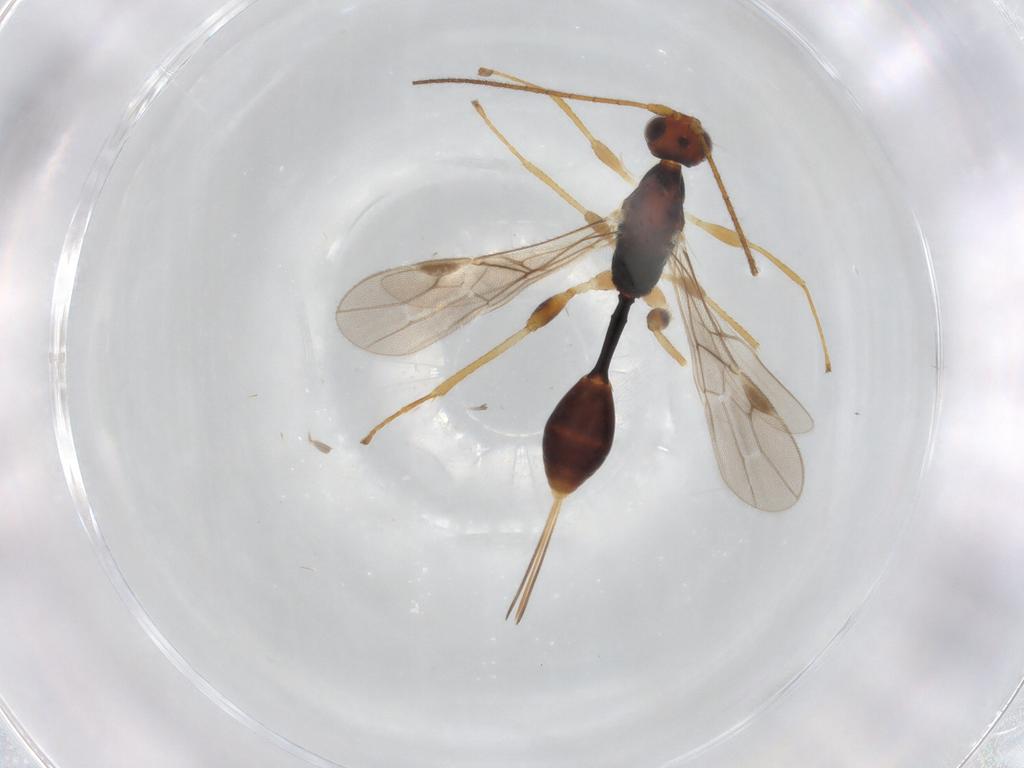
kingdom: Animalia
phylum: Arthropoda
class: Insecta
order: Hymenoptera
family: Braconidae
